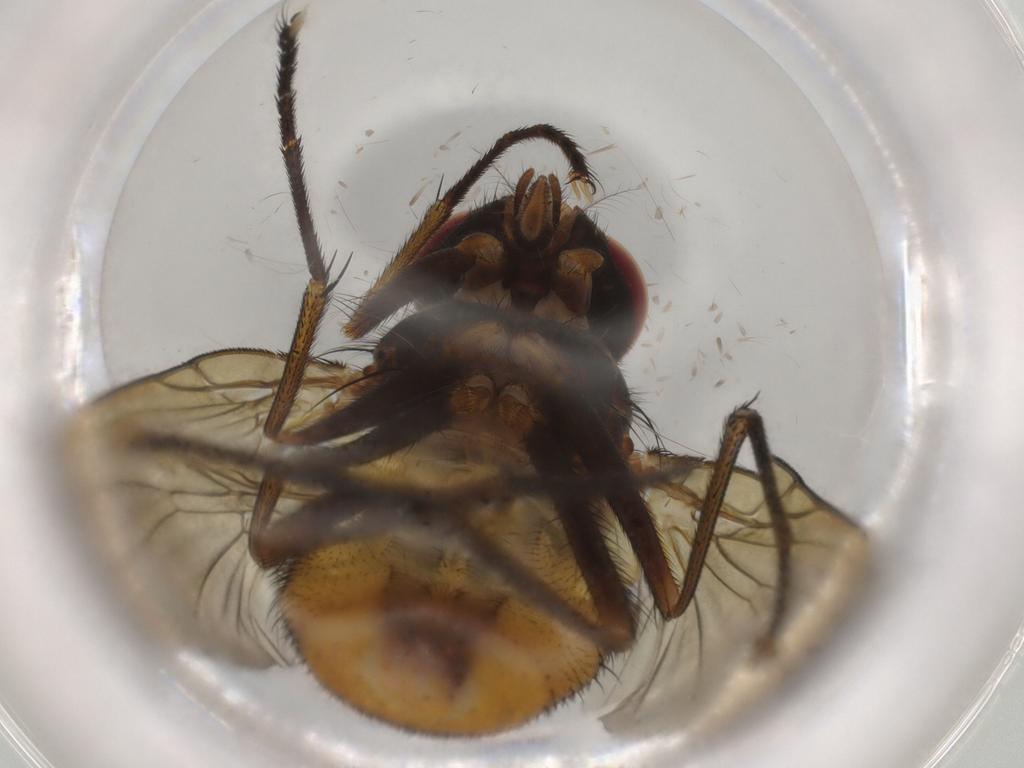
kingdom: Animalia
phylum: Arthropoda
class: Insecta
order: Diptera
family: Muscidae
